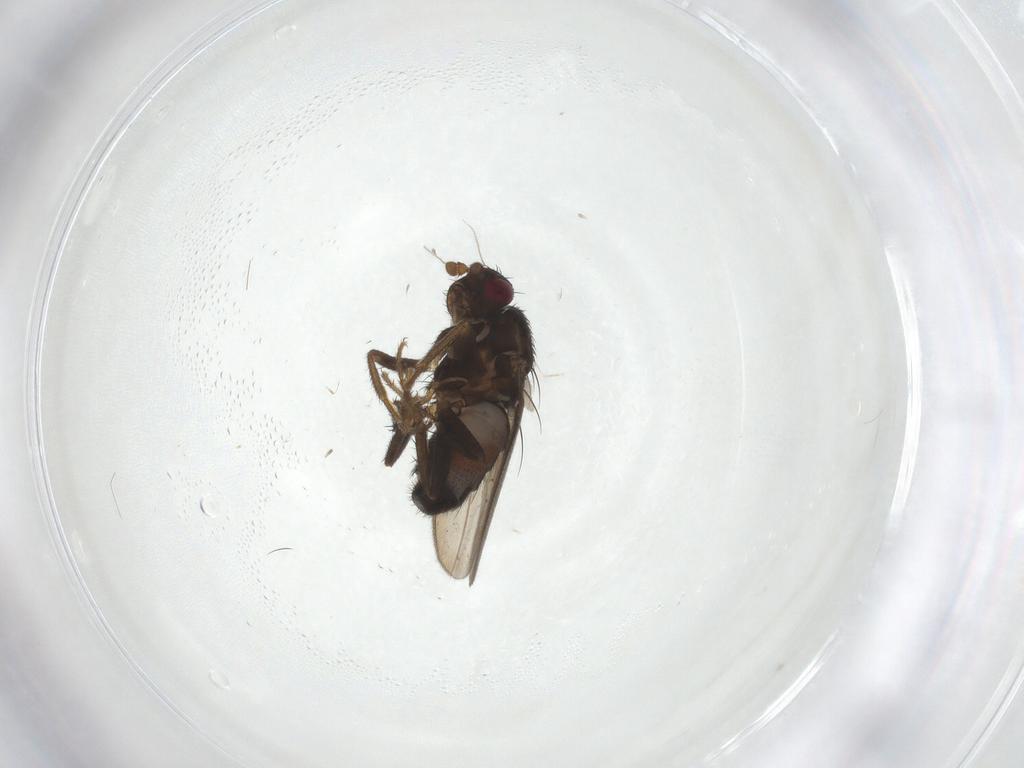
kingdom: Animalia
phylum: Arthropoda
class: Insecta
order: Diptera
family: Sphaeroceridae
